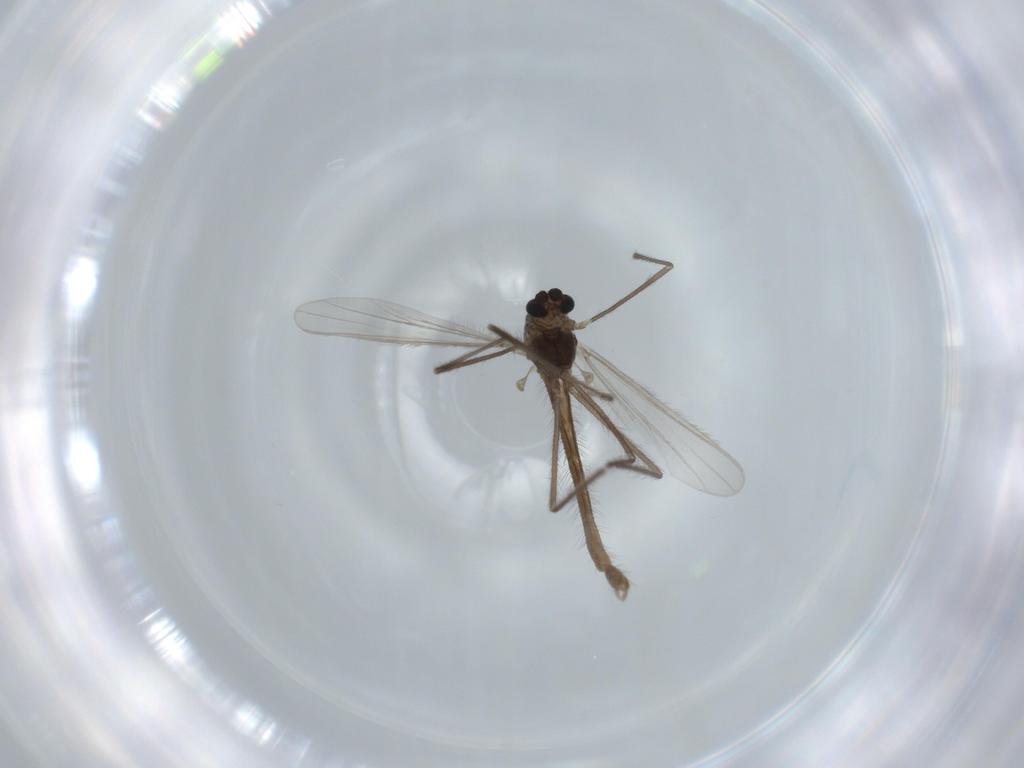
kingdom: Animalia
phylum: Arthropoda
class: Insecta
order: Diptera
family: Chironomidae
